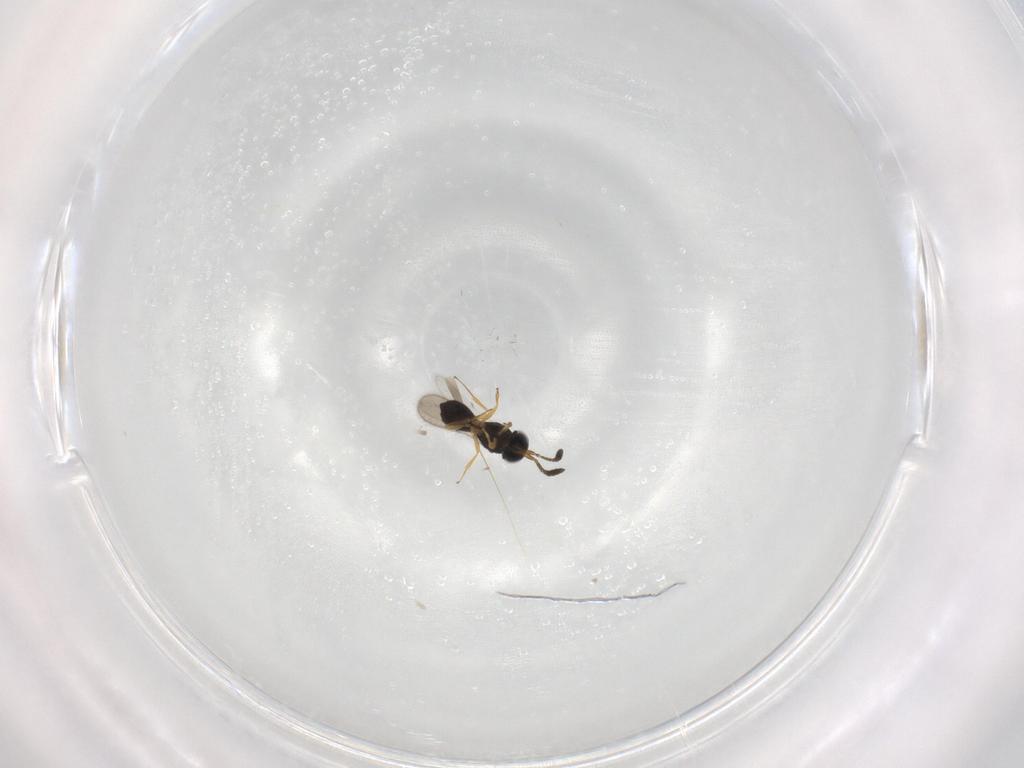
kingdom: Animalia
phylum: Arthropoda
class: Insecta
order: Hymenoptera
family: Scelionidae
